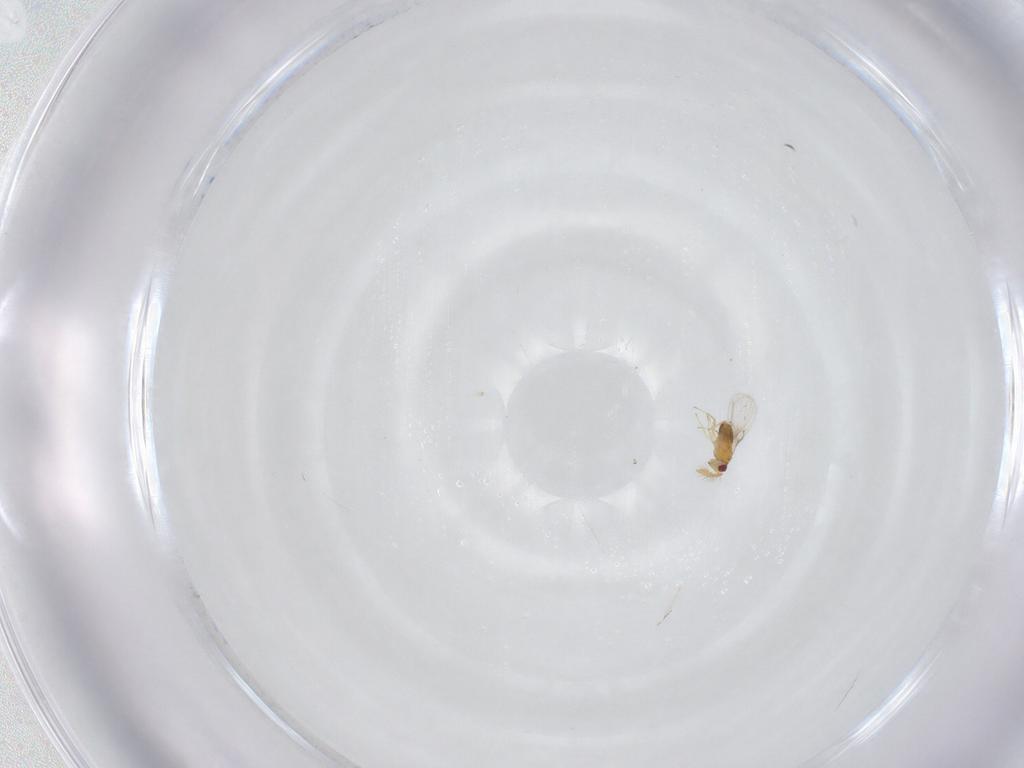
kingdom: Animalia
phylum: Arthropoda
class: Insecta
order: Hymenoptera
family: Trichogrammatidae
